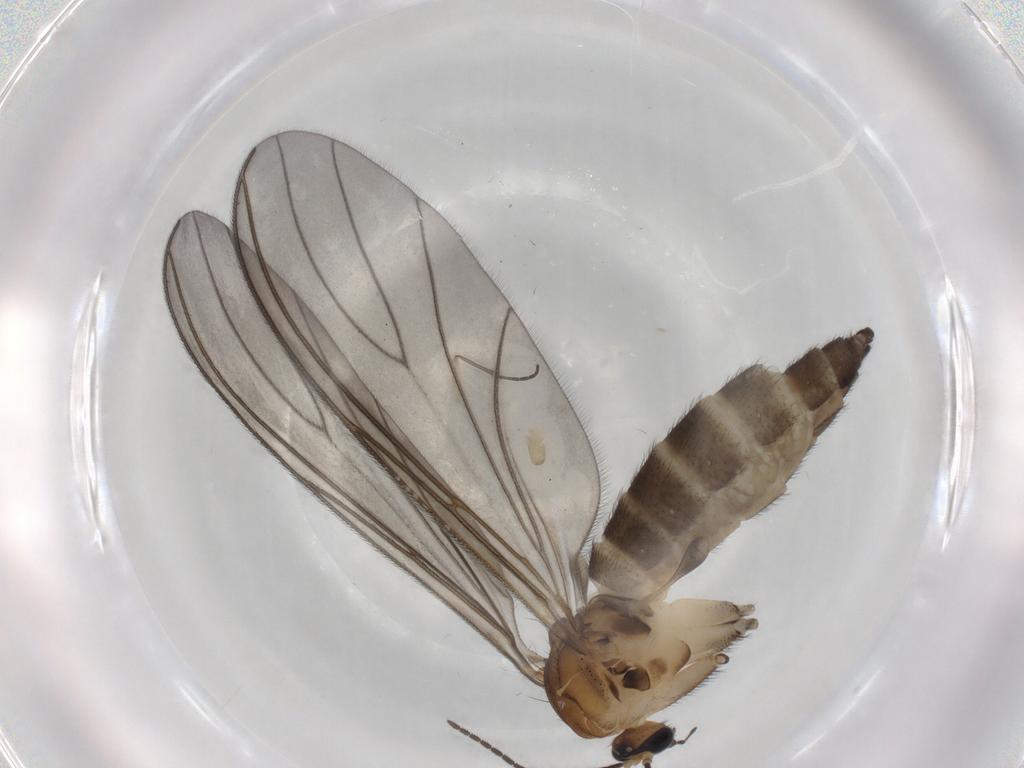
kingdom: Animalia
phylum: Arthropoda
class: Insecta
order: Diptera
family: Sciaridae
